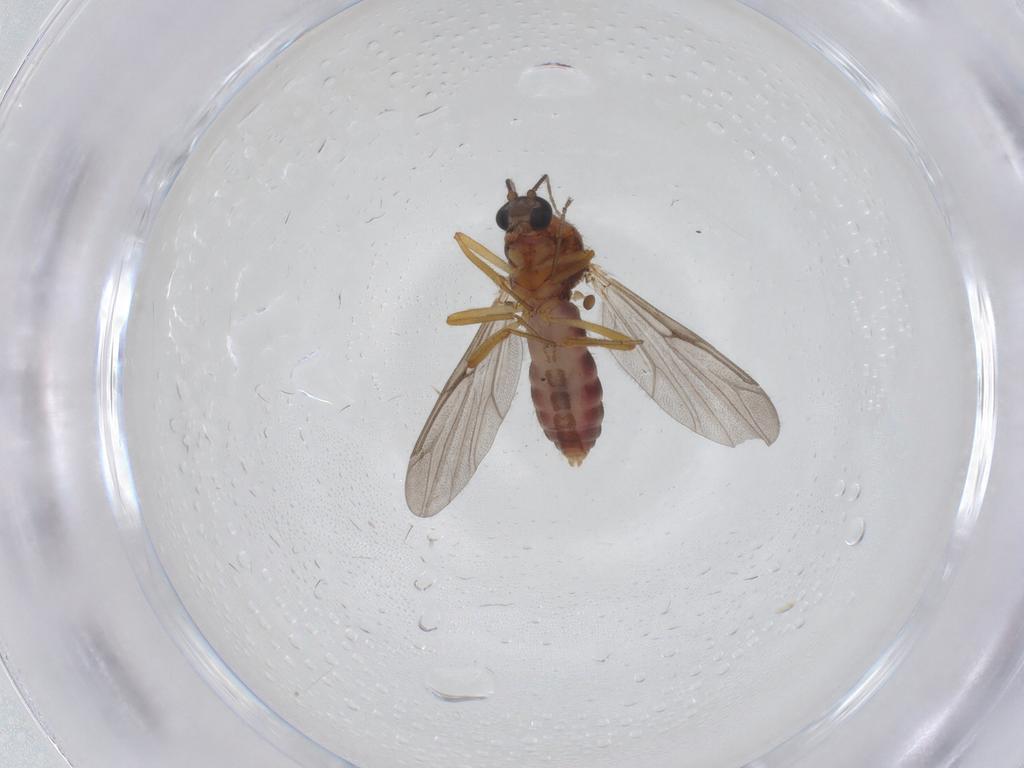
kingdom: Animalia
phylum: Arthropoda
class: Insecta
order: Diptera
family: Ceratopogonidae
